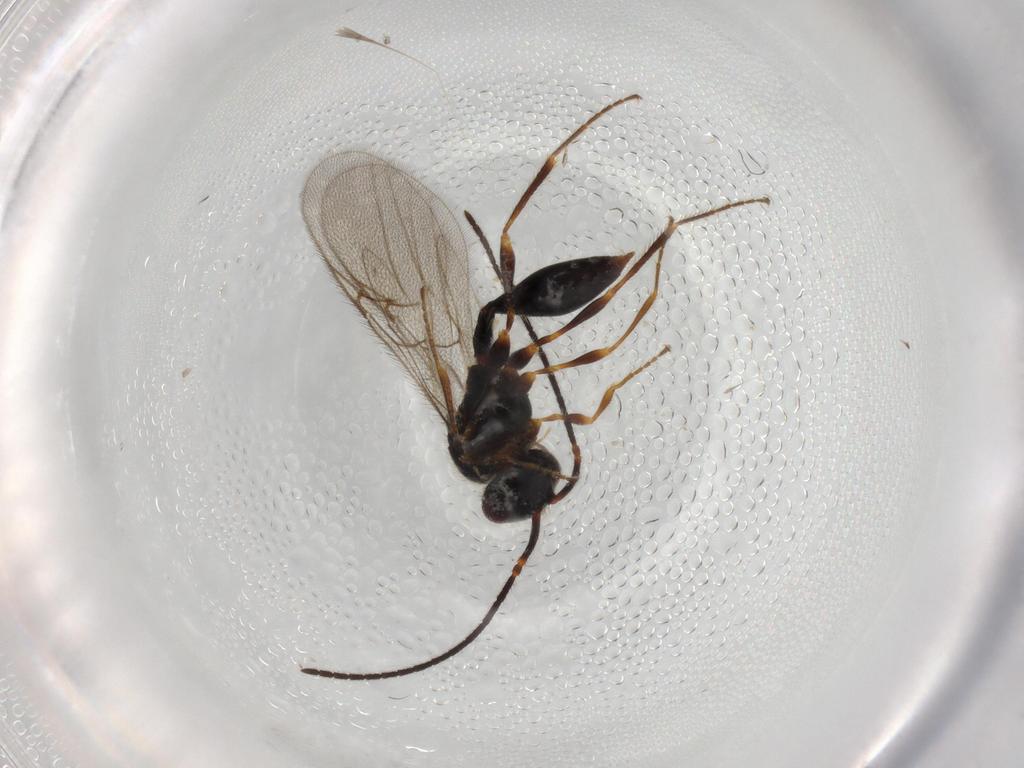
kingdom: Animalia
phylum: Arthropoda
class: Insecta
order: Hymenoptera
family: Diapriidae
